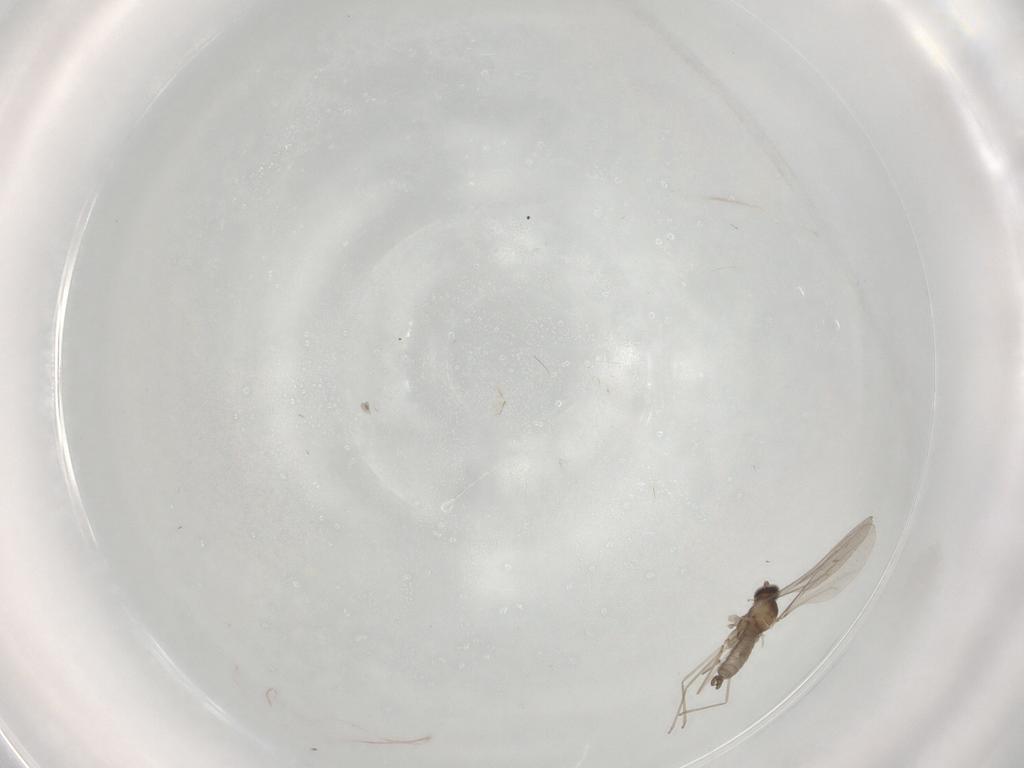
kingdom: Animalia
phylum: Arthropoda
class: Insecta
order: Diptera
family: Cecidomyiidae
